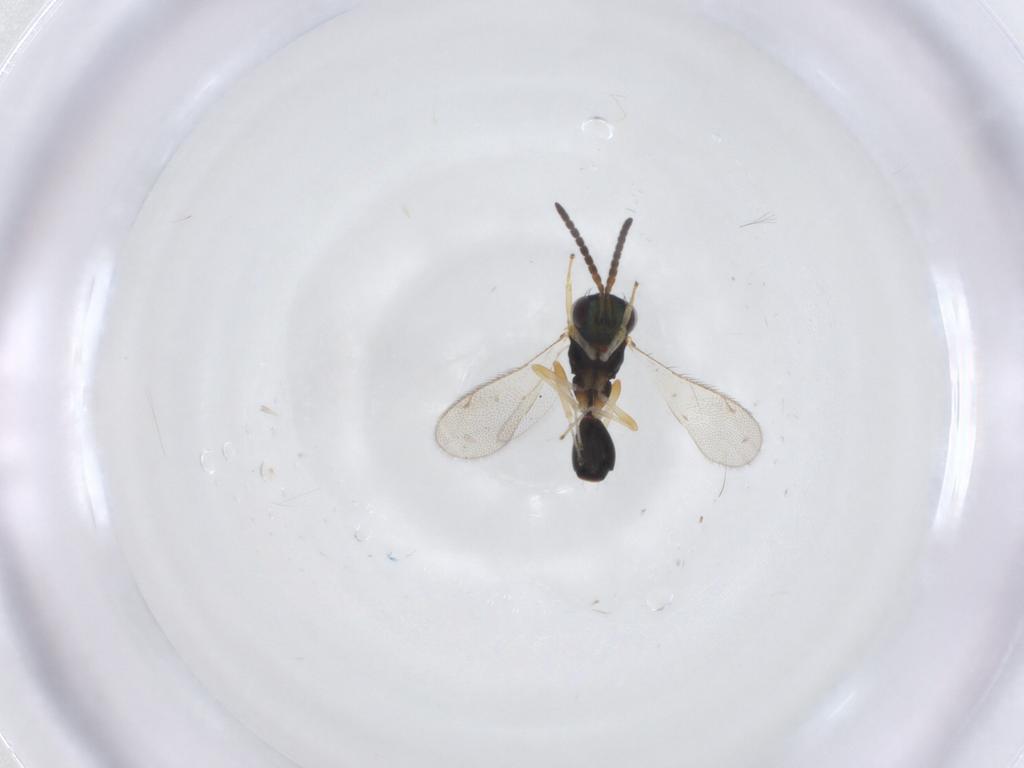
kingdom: Animalia
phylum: Arthropoda
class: Insecta
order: Hymenoptera
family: Diparidae
